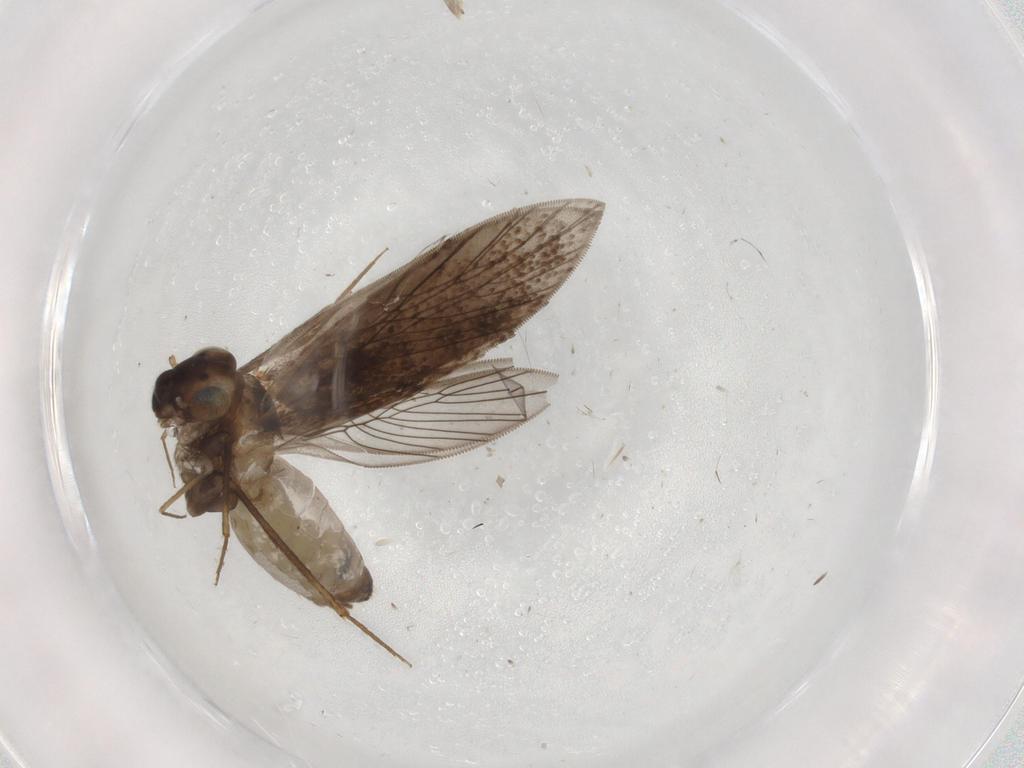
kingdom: Animalia
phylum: Arthropoda
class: Insecta
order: Psocodea
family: Lepidopsocidae
